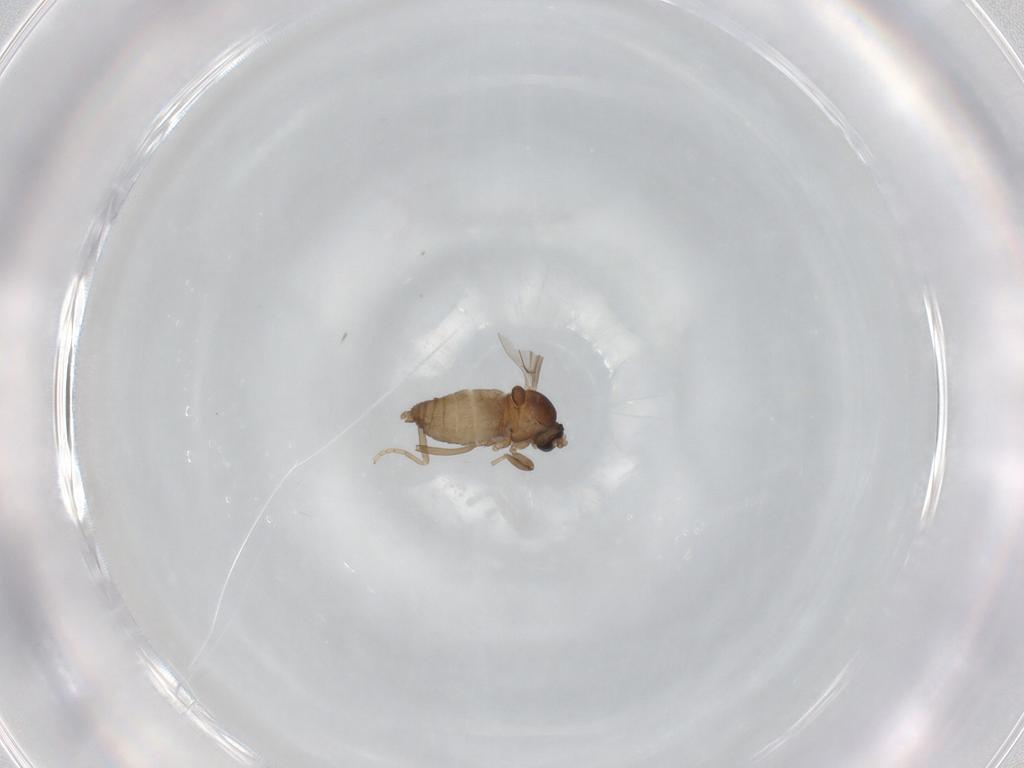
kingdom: Animalia
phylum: Arthropoda
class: Insecta
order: Diptera
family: Cecidomyiidae
